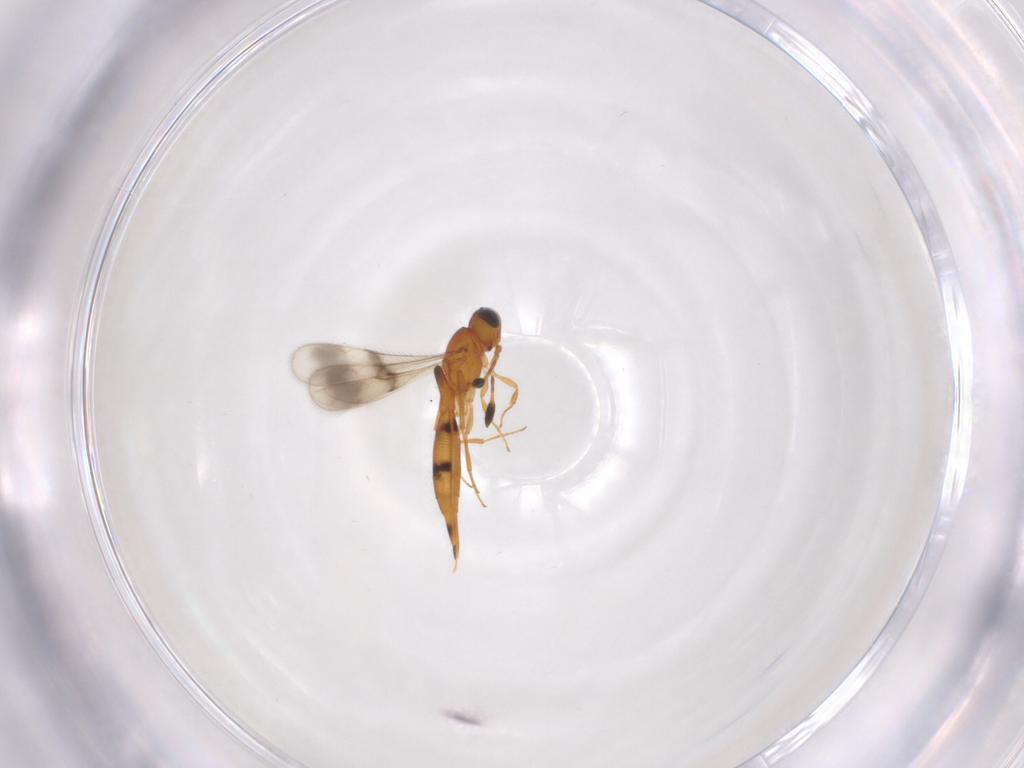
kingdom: Animalia
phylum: Arthropoda
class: Insecta
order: Hymenoptera
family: Scelionidae
